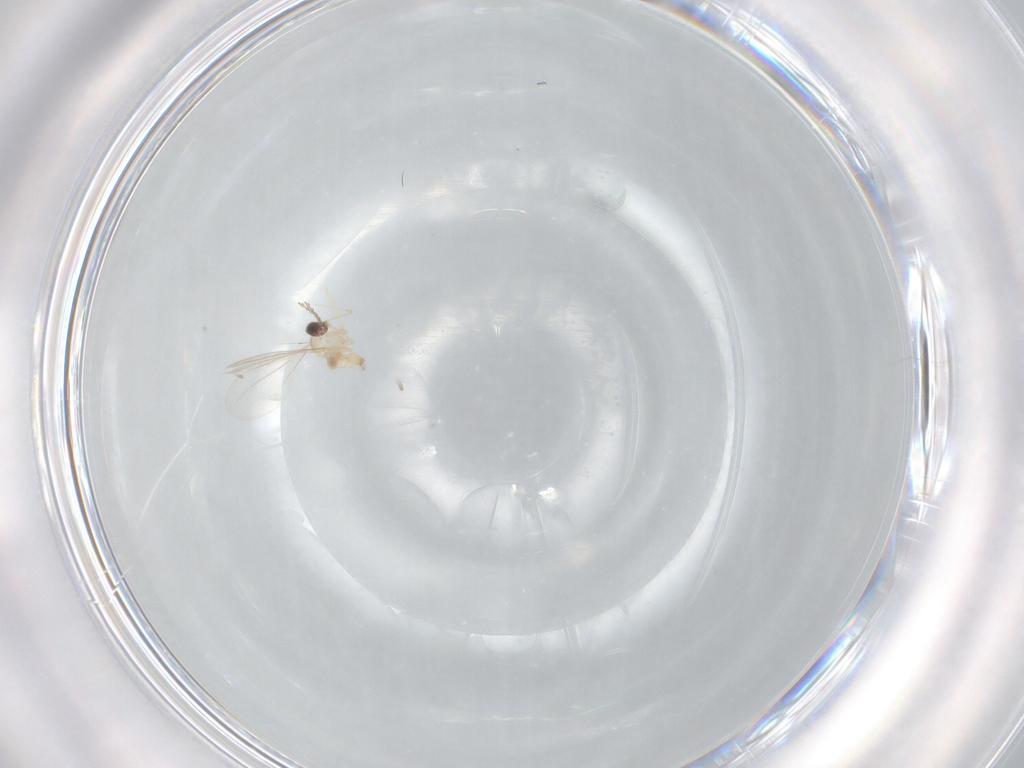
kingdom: Animalia
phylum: Arthropoda
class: Insecta
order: Diptera
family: Cecidomyiidae
